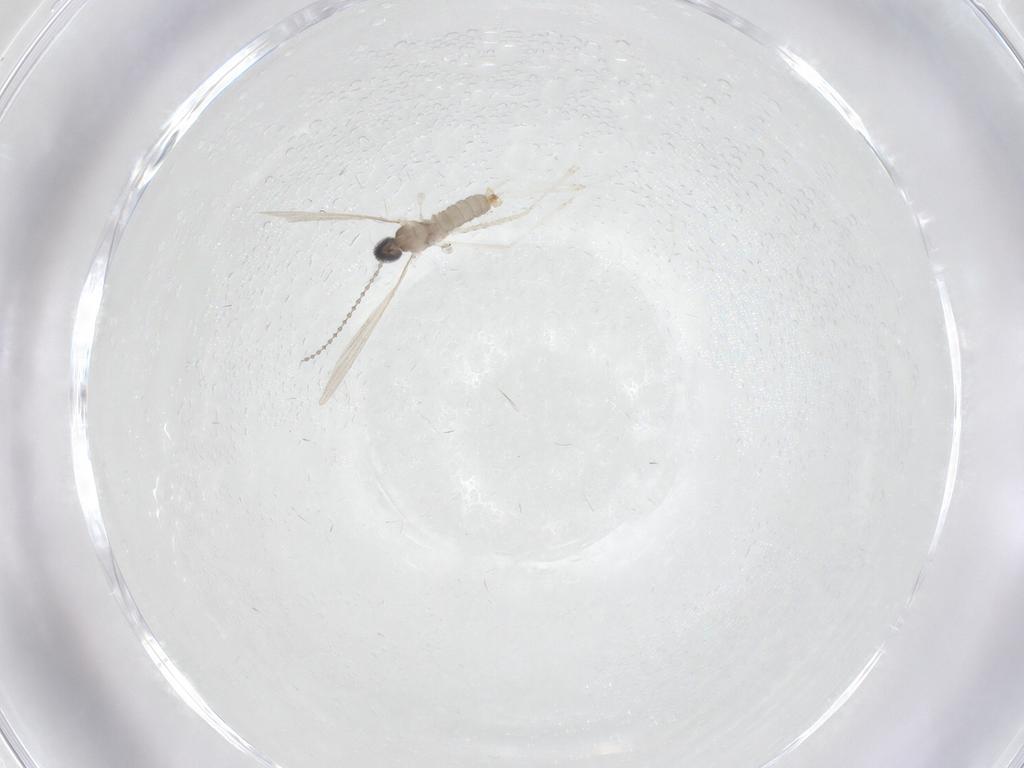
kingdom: Animalia
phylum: Arthropoda
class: Insecta
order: Diptera
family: Cecidomyiidae
